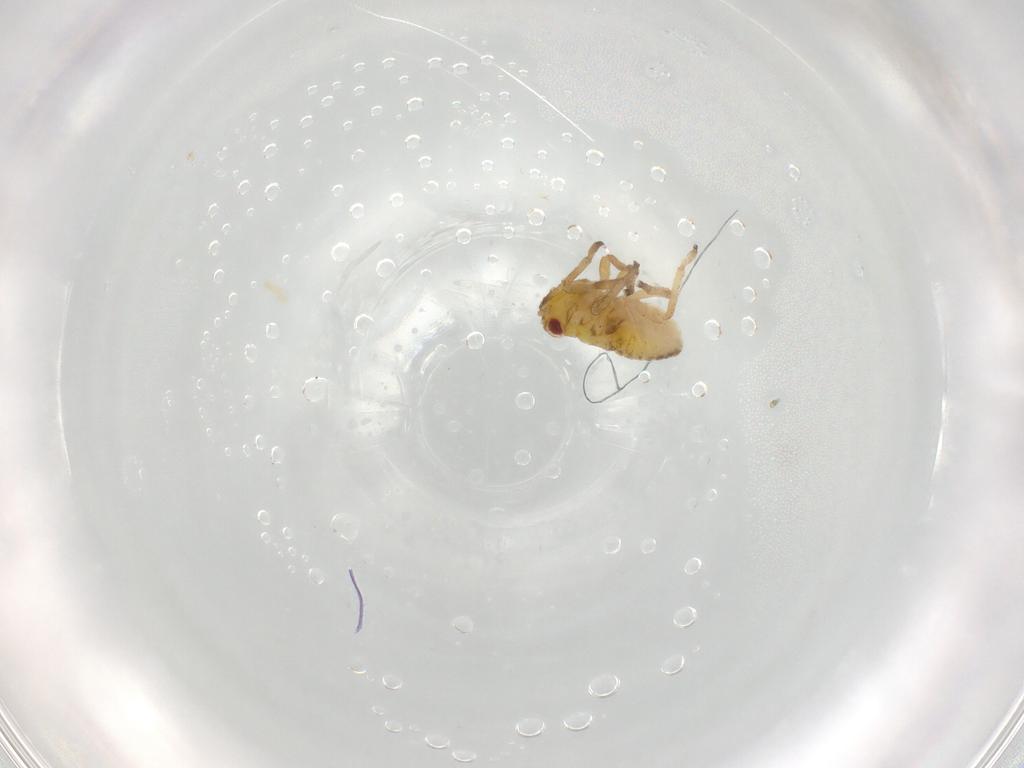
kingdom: Animalia
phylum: Arthropoda
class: Insecta
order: Hemiptera
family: Cicadellidae
